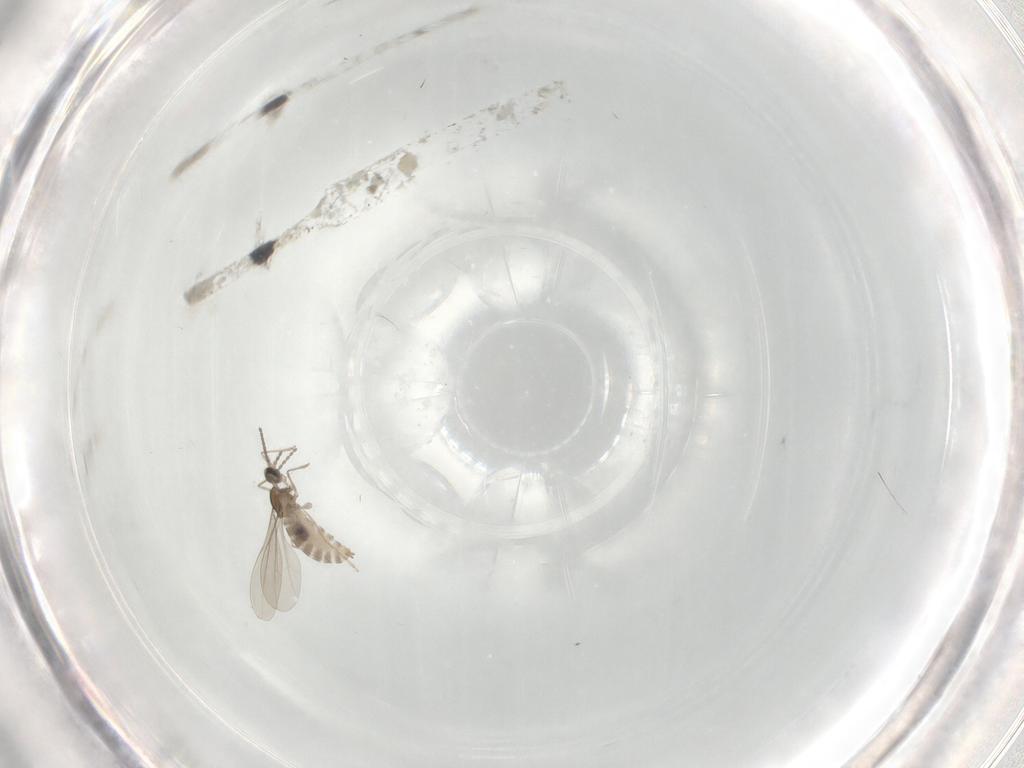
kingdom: Animalia
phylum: Arthropoda
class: Insecta
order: Diptera
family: Cecidomyiidae
